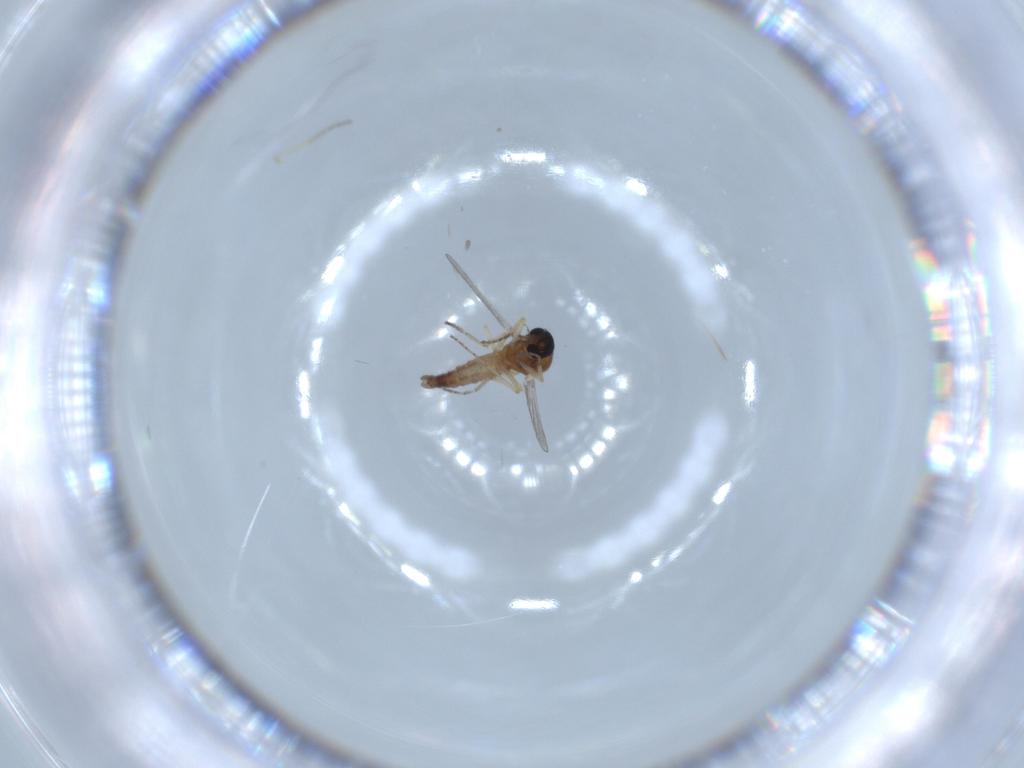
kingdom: Animalia
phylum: Arthropoda
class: Insecta
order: Diptera
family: Ceratopogonidae
